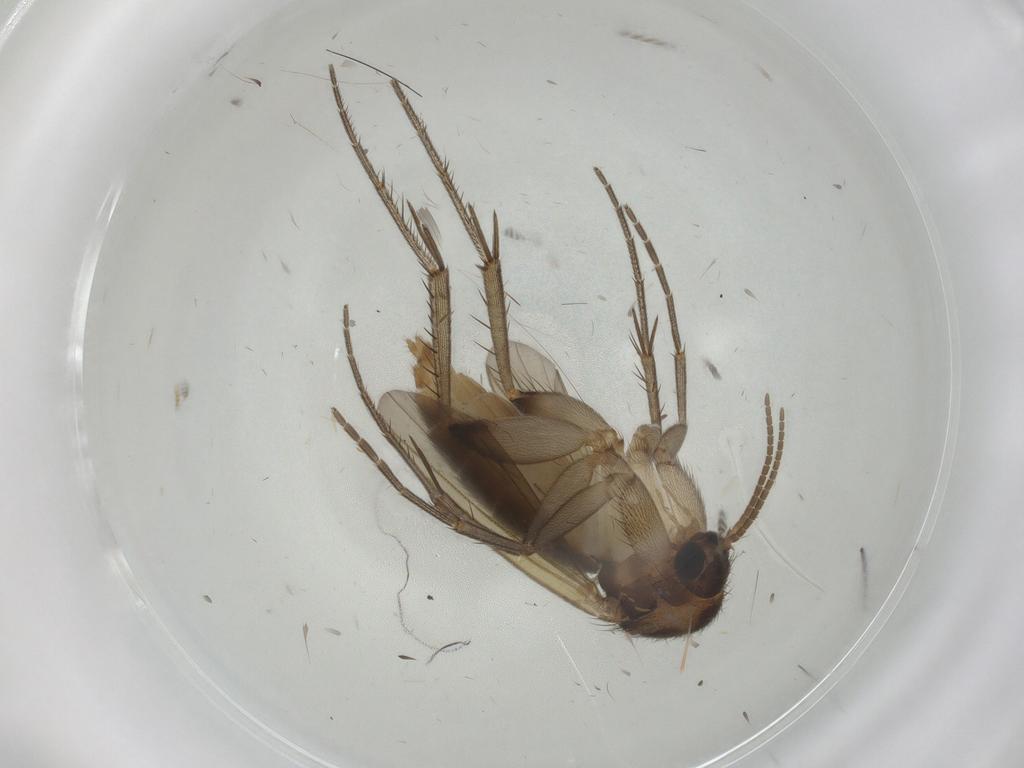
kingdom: Animalia
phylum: Arthropoda
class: Insecta
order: Diptera
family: Mycetophilidae
